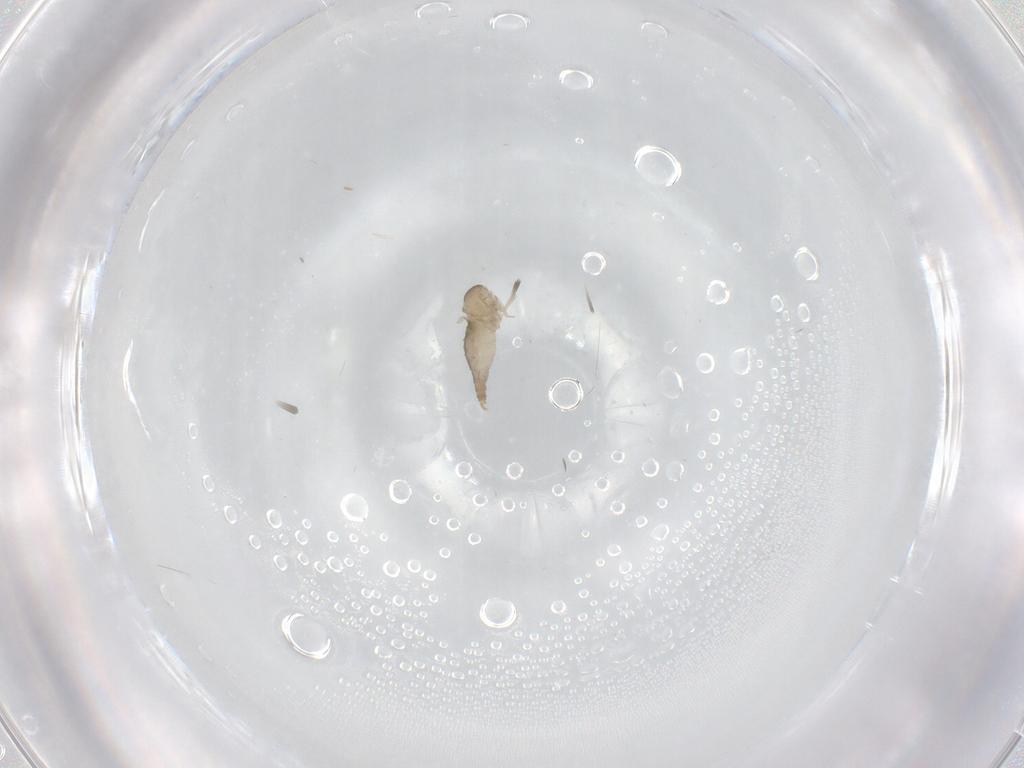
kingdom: Animalia
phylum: Arthropoda
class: Insecta
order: Diptera
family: Cecidomyiidae
